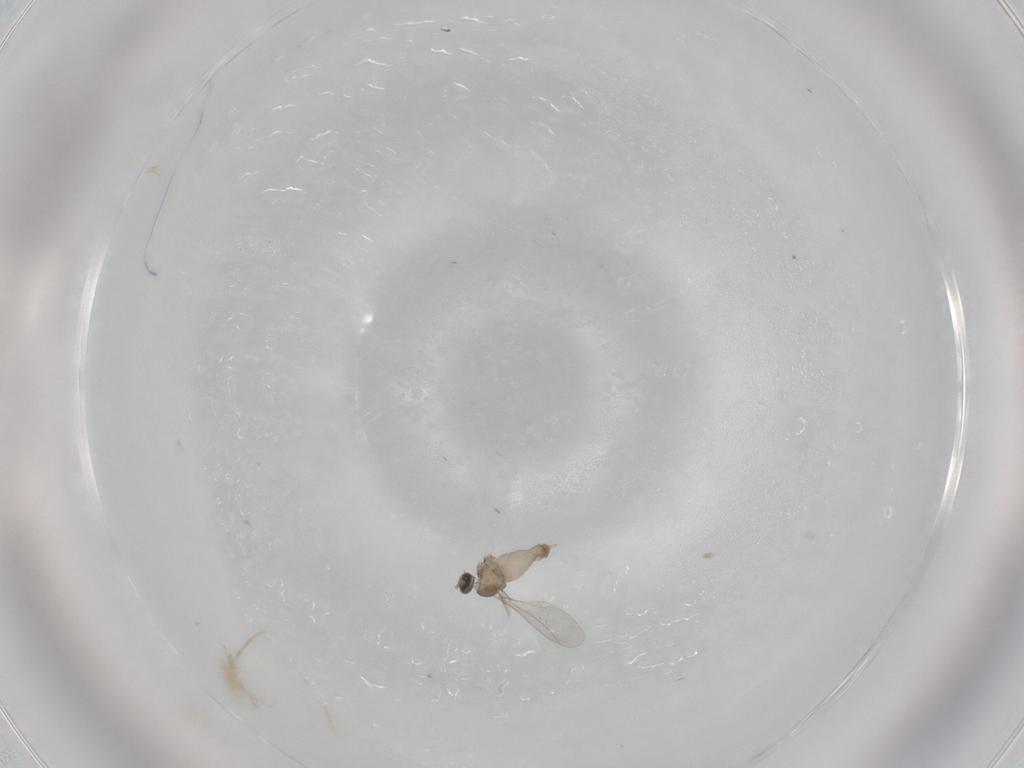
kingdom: Animalia
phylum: Arthropoda
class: Insecta
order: Diptera
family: Cecidomyiidae
